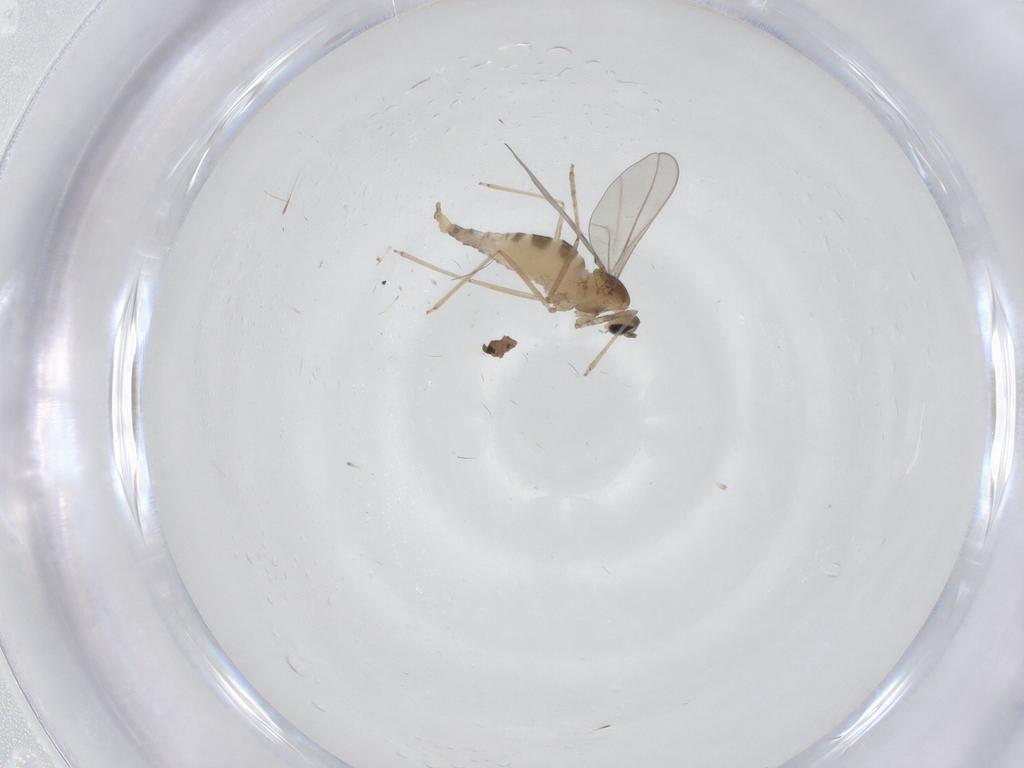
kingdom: Animalia
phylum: Arthropoda
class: Insecta
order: Diptera
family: Cecidomyiidae
